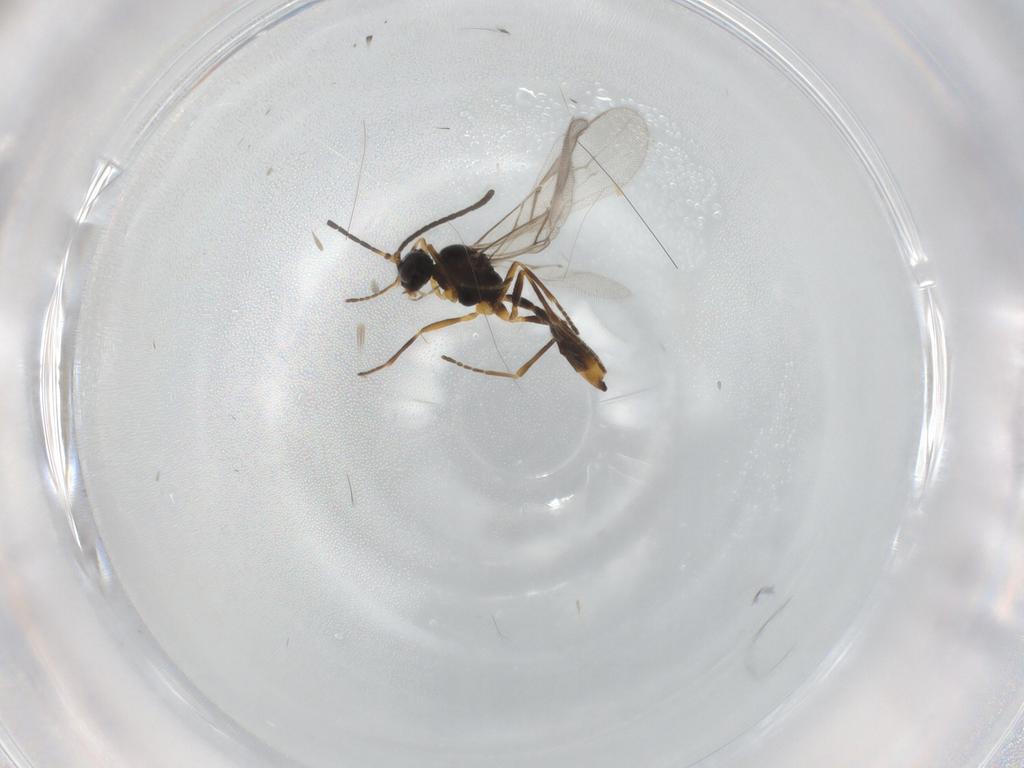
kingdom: Animalia
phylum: Arthropoda
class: Insecta
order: Hymenoptera
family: Braconidae
